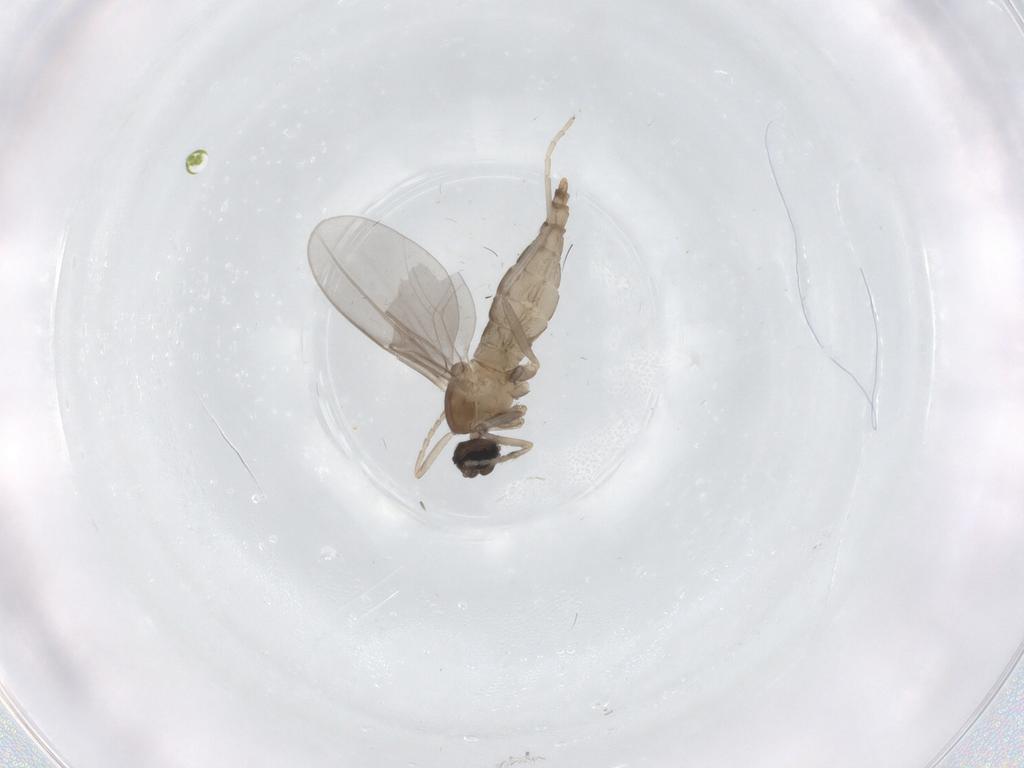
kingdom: Animalia
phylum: Arthropoda
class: Insecta
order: Diptera
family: Cecidomyiidae
